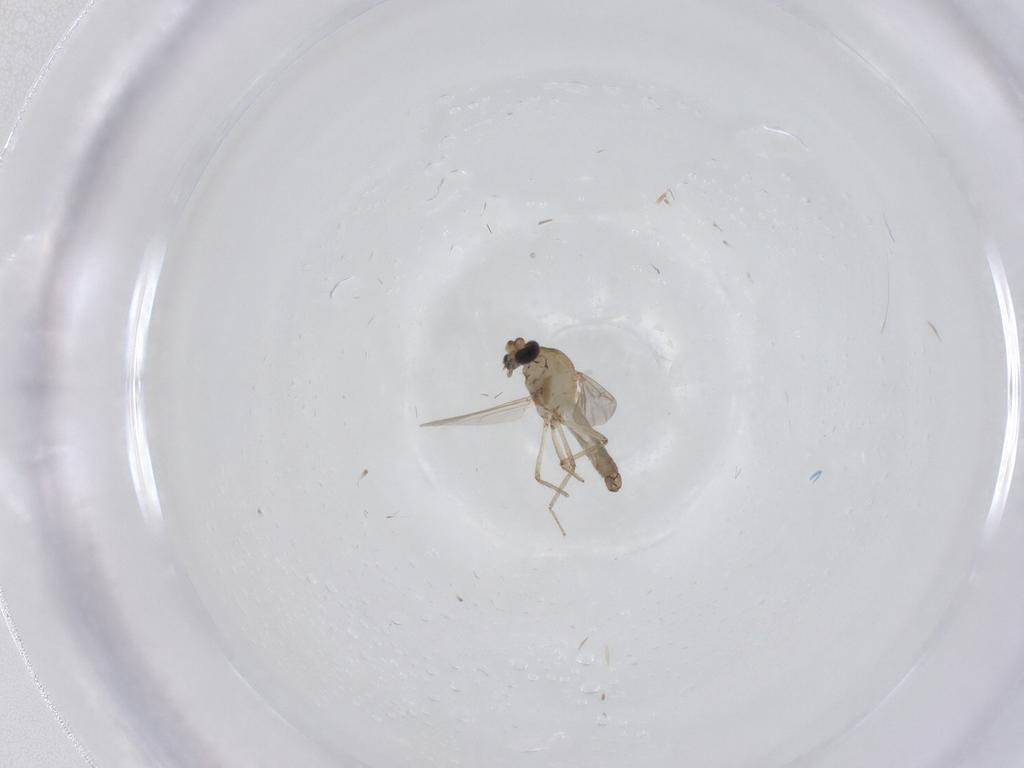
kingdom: Animalia
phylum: Arthropoda
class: Insecta
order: Diptera
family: Ceratopogonidae
